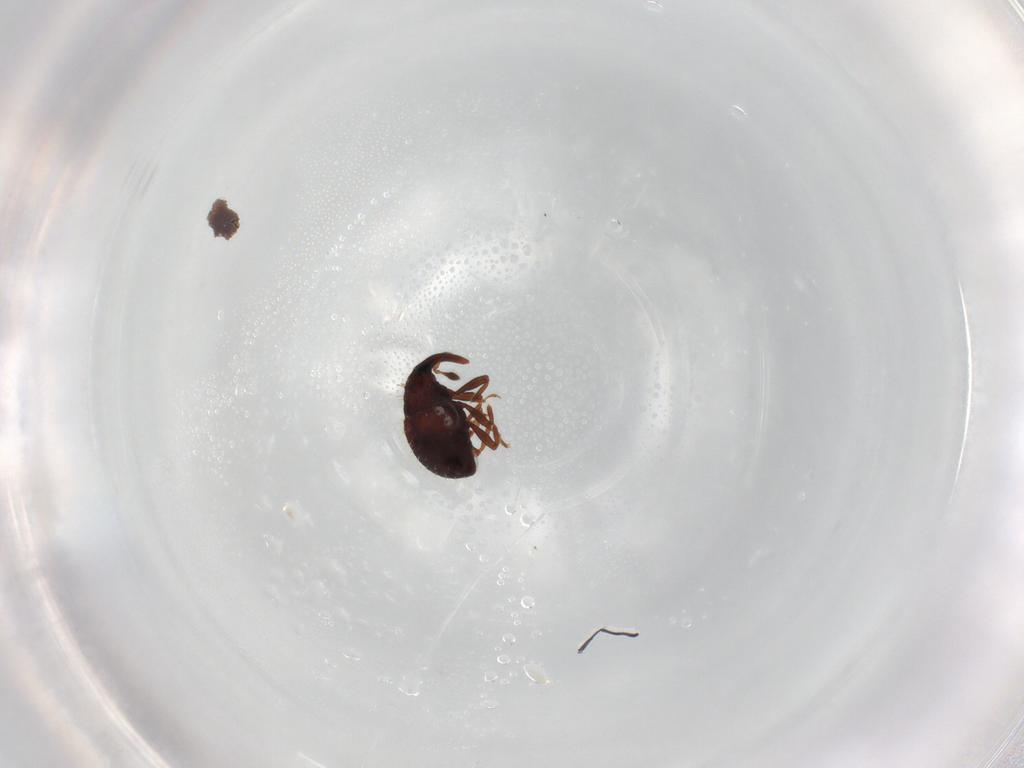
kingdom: Animalia
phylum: Arthropoda
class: Insecta
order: Coleoptera
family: Curculionidae
